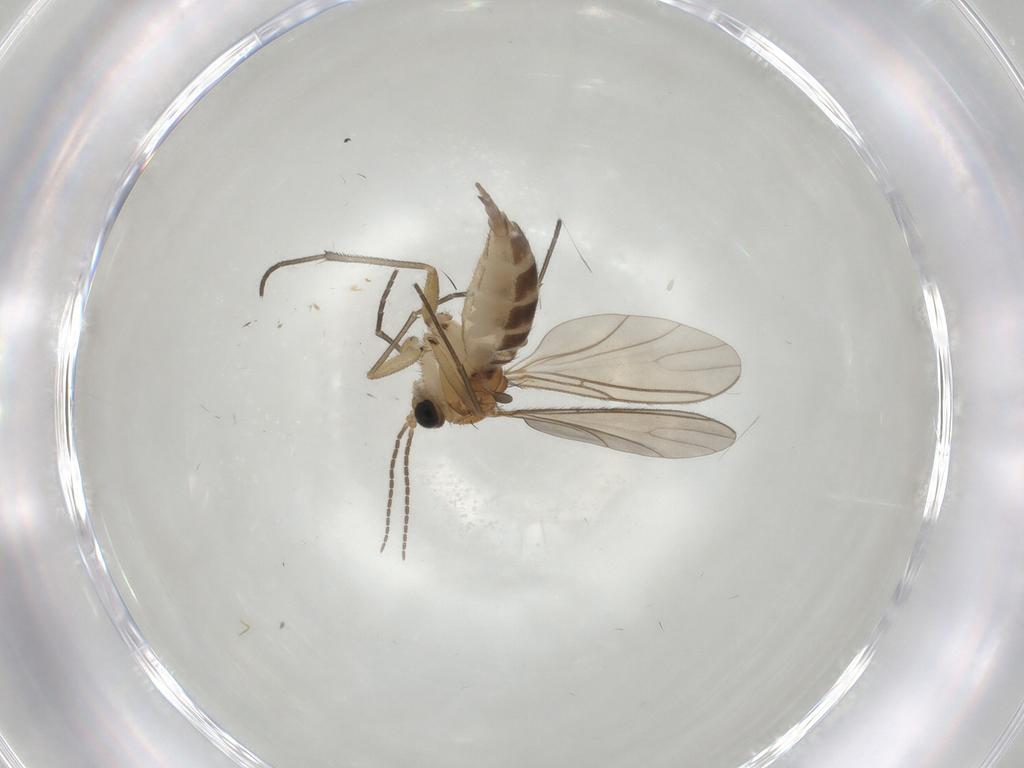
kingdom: Animalia
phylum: Arthropoda
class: Insecta
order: Diptera
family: Sciaridae
